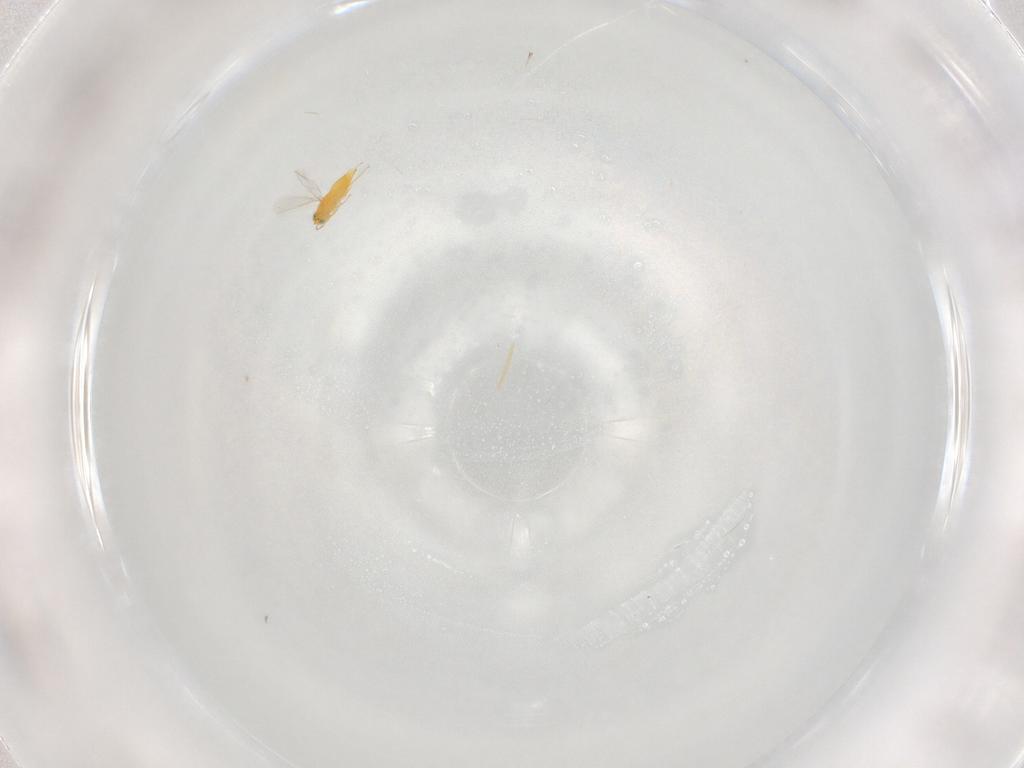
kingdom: Animalia
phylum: Arthropoda
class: Insecta
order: Hymenoptera
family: Aphelinidae
